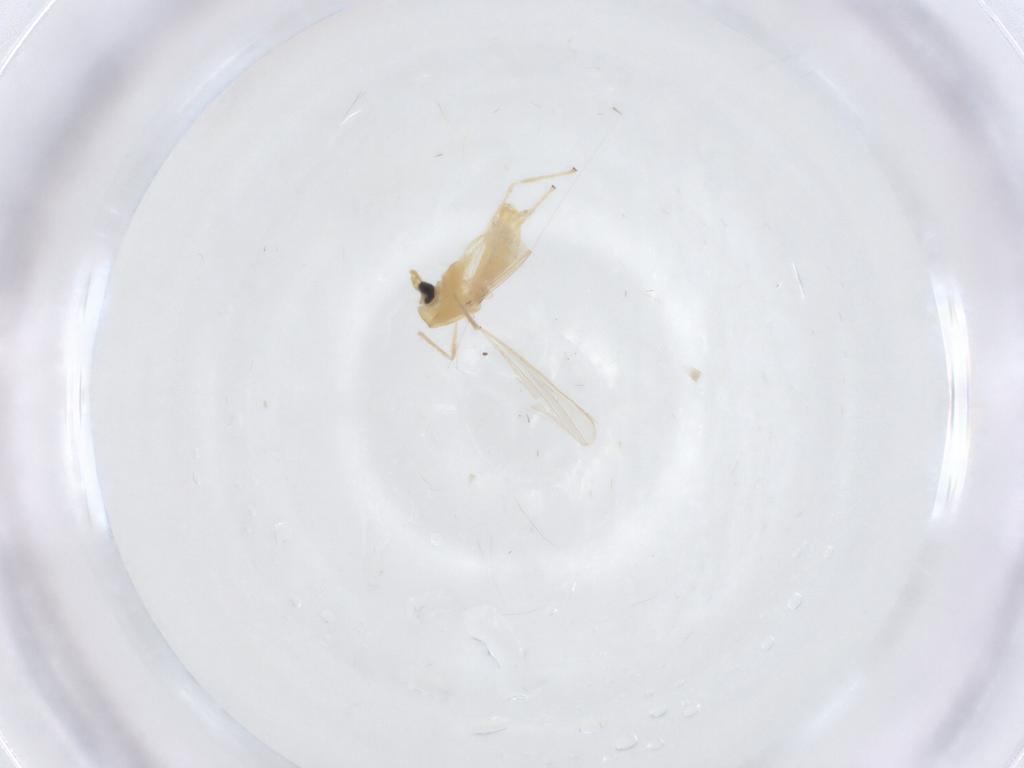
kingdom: Animalia
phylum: Arthropoda
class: Insecta
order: Diptera
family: Chironomidae
